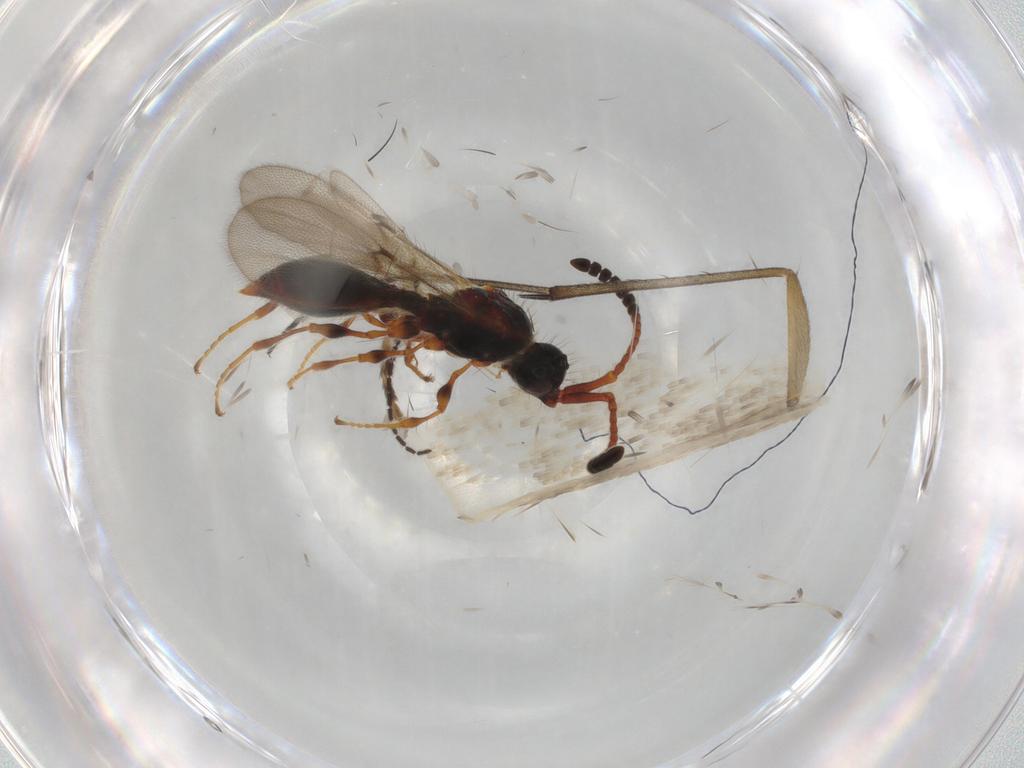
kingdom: Animalia
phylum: Arthropoda
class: Insecta
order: Hymenoptera
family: Diapriidae
